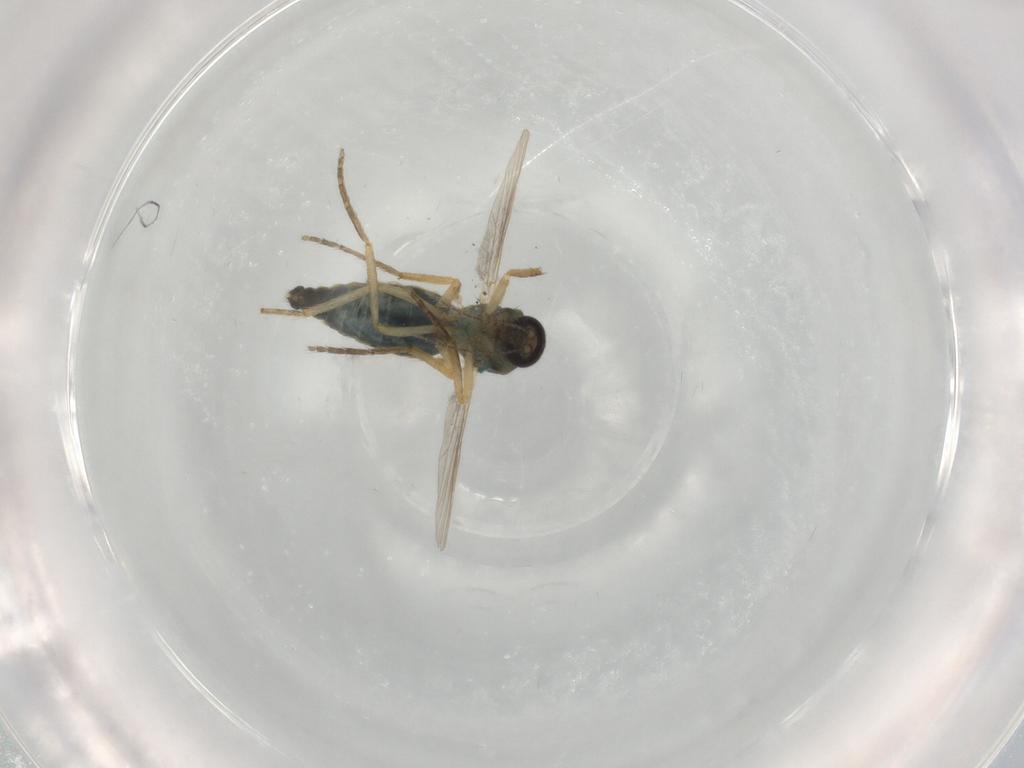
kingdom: Animalia
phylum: Arthropoda
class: Insecta
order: Diptera
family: Ceratopogonidae
